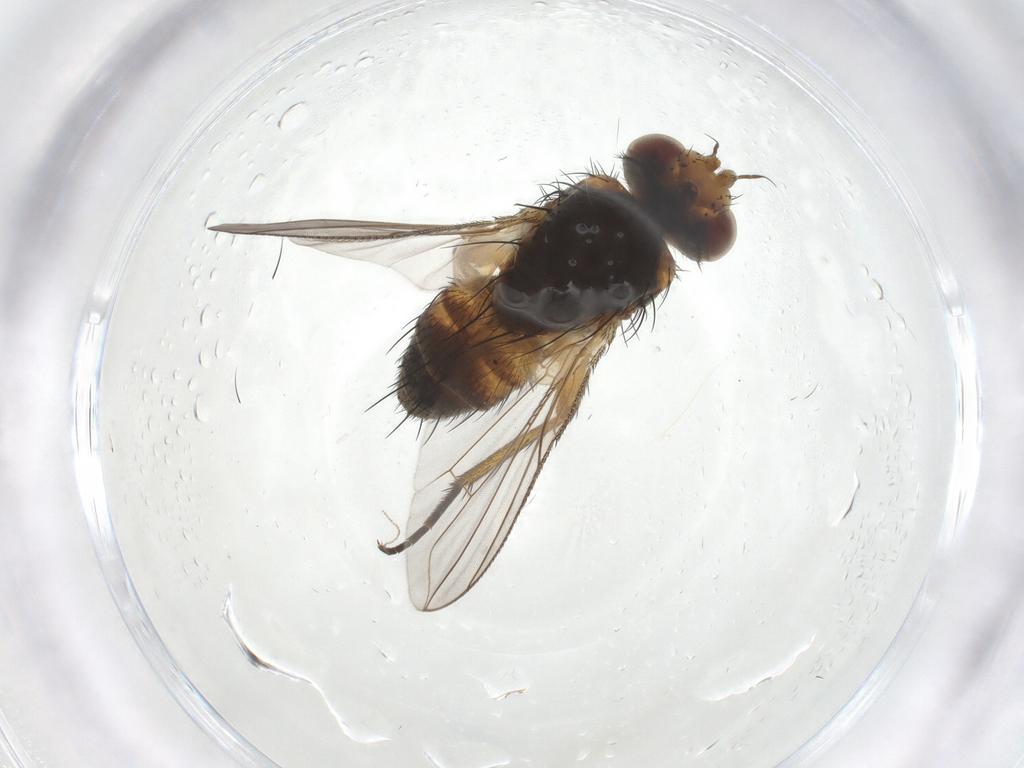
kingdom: Animalia
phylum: Arthropoda
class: Insecta
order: Diptera
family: Tachinidae
